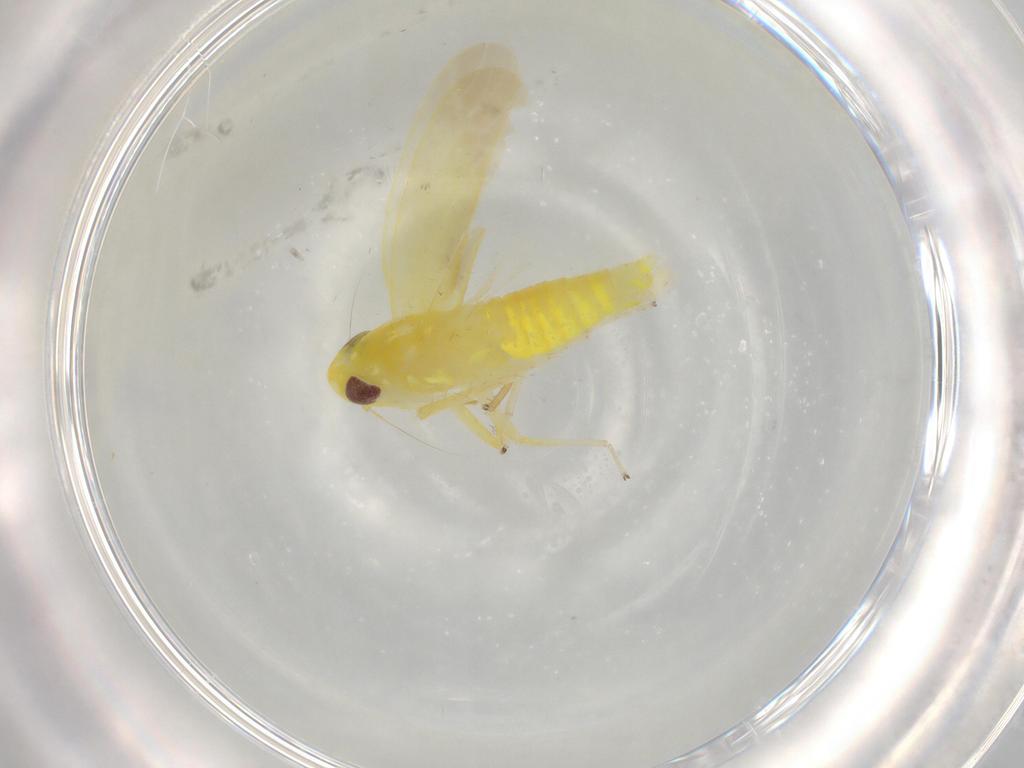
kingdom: Animalia
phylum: Arthropoda
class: Insecta
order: Hemiptera
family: Cicadellidae
